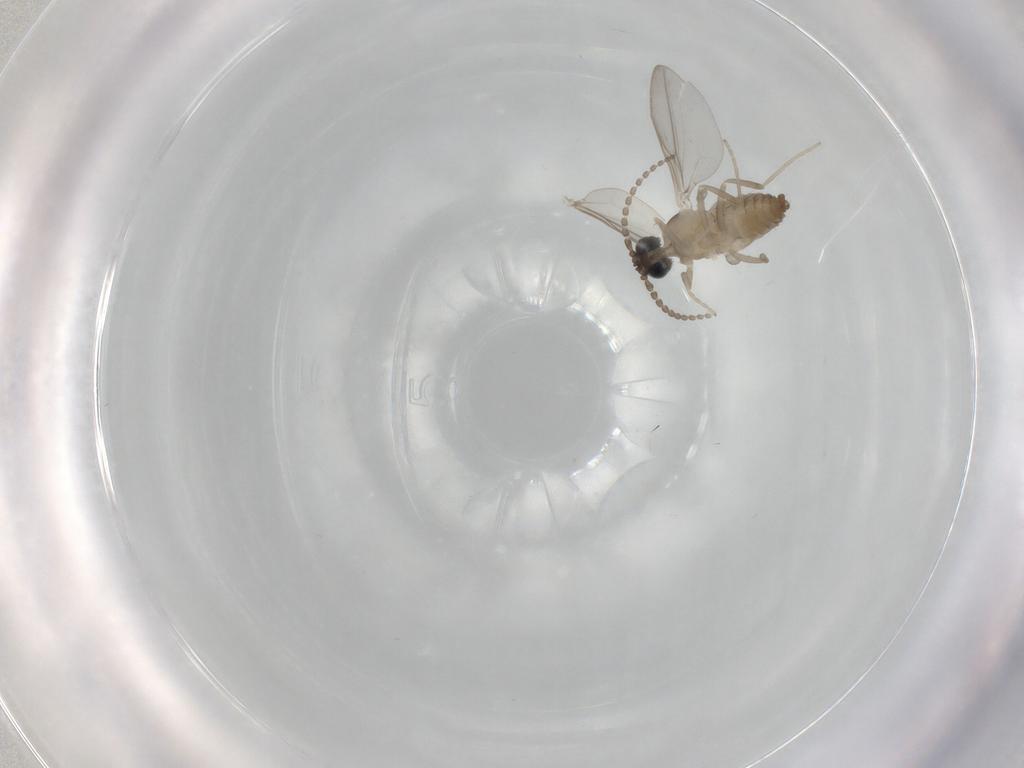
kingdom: Animalia
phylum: Arthropoda
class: Insecta
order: Diptera
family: Cecidomyiidae
